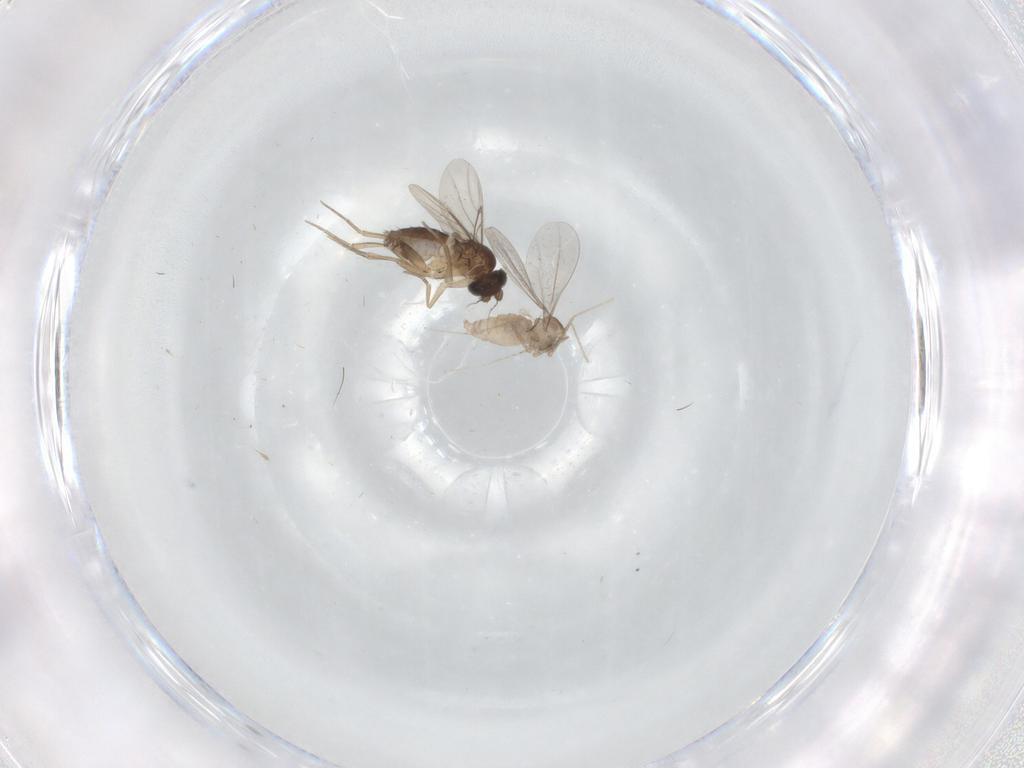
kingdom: Animalia
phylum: Arthropoda
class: Insecta
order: Diptera
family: Phoridae
